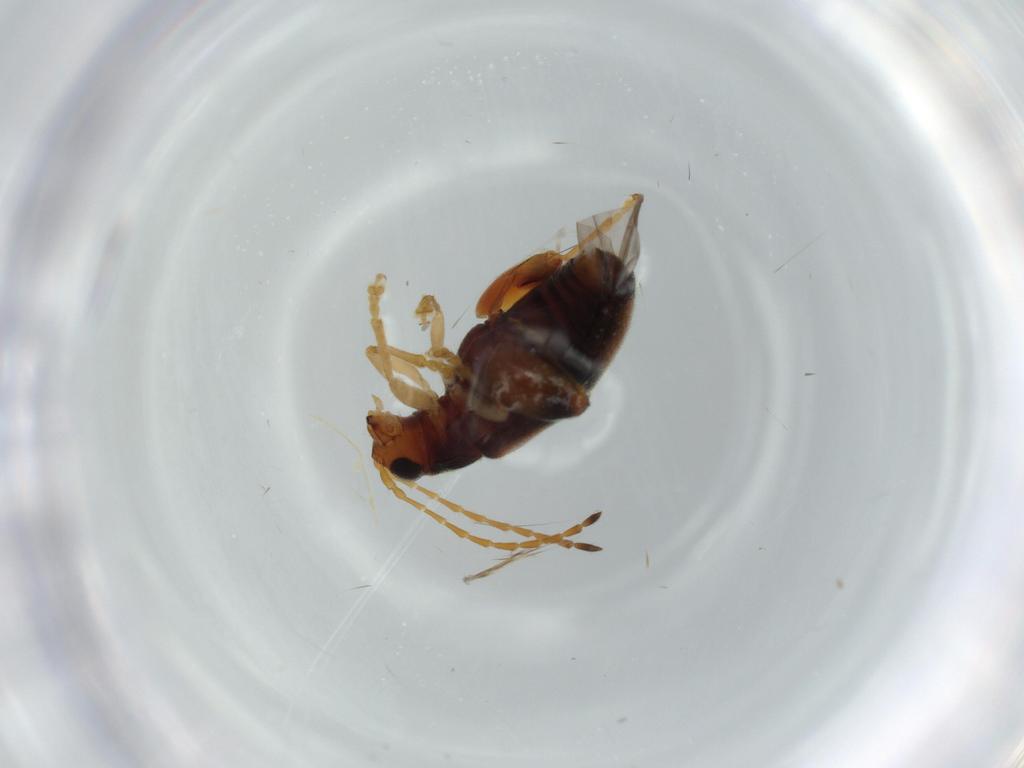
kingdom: Animalia
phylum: Arthropoda
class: Insecta
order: Coleoptera
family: Chrysomelidae
